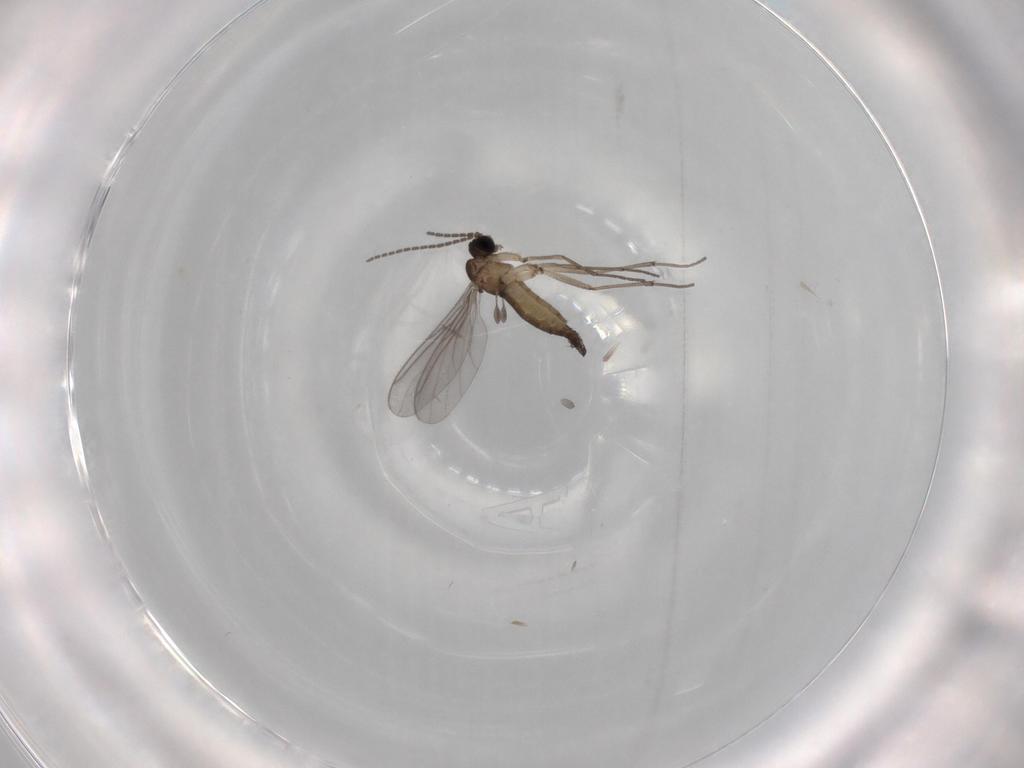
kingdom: Animalia
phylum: Arthropoda
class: Insecta
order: Diptera
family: Sciaridae
